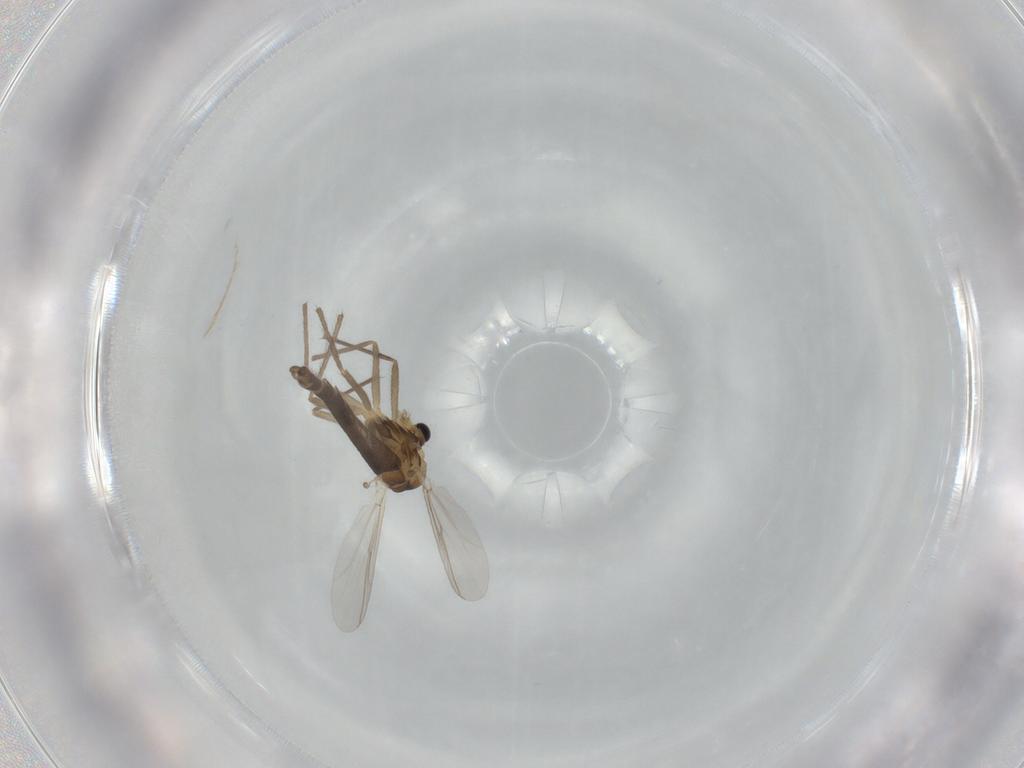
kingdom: Animalia
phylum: Arthropoda
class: Insecta
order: Diptera
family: Chironomidae
